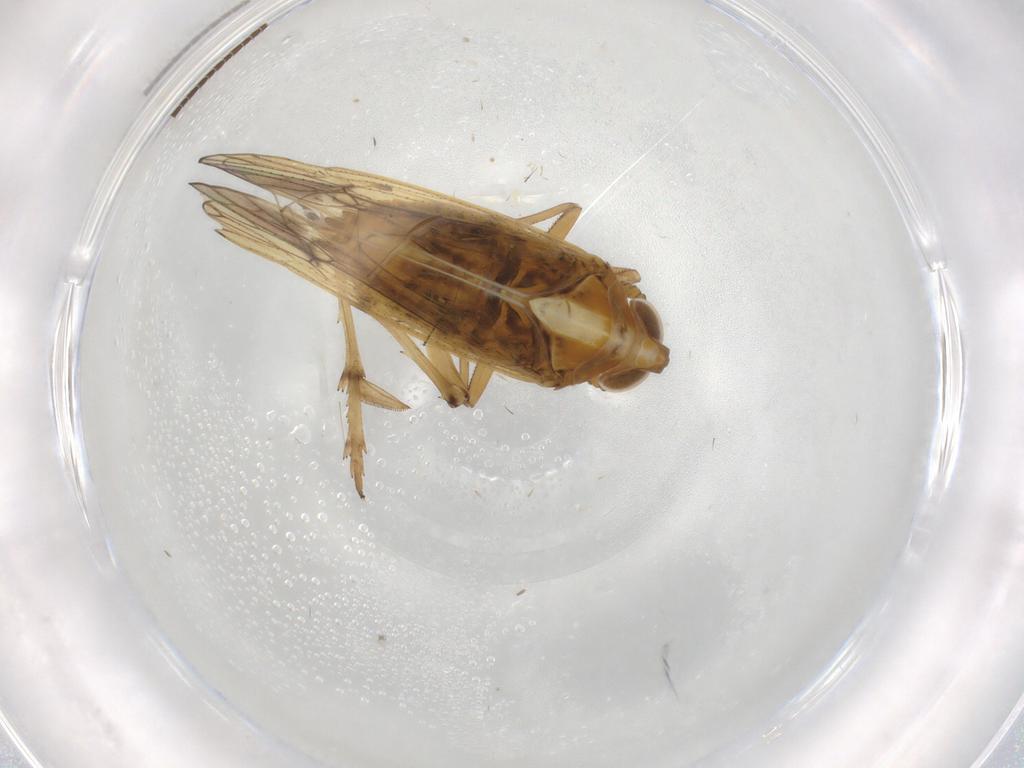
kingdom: Animalia
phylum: Arthropoda
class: Insecta
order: Hemiptera
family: Delphacidae
